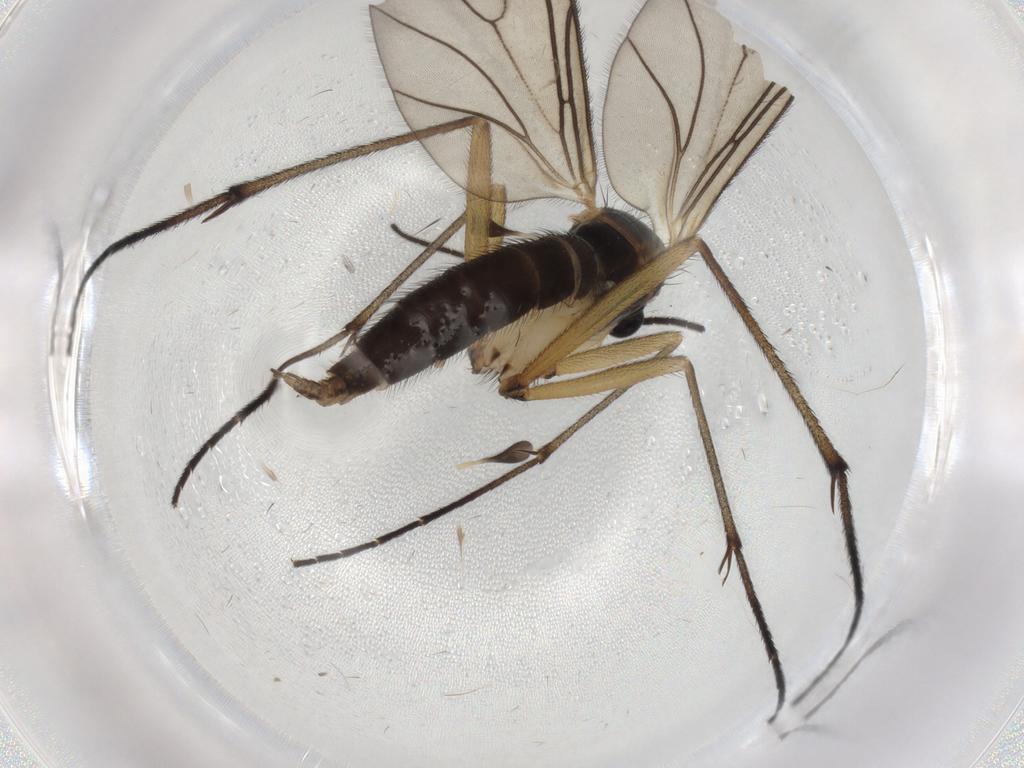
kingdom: Animalia
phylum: Arthropoda
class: Insecta
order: Diptera
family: Sciaridae
